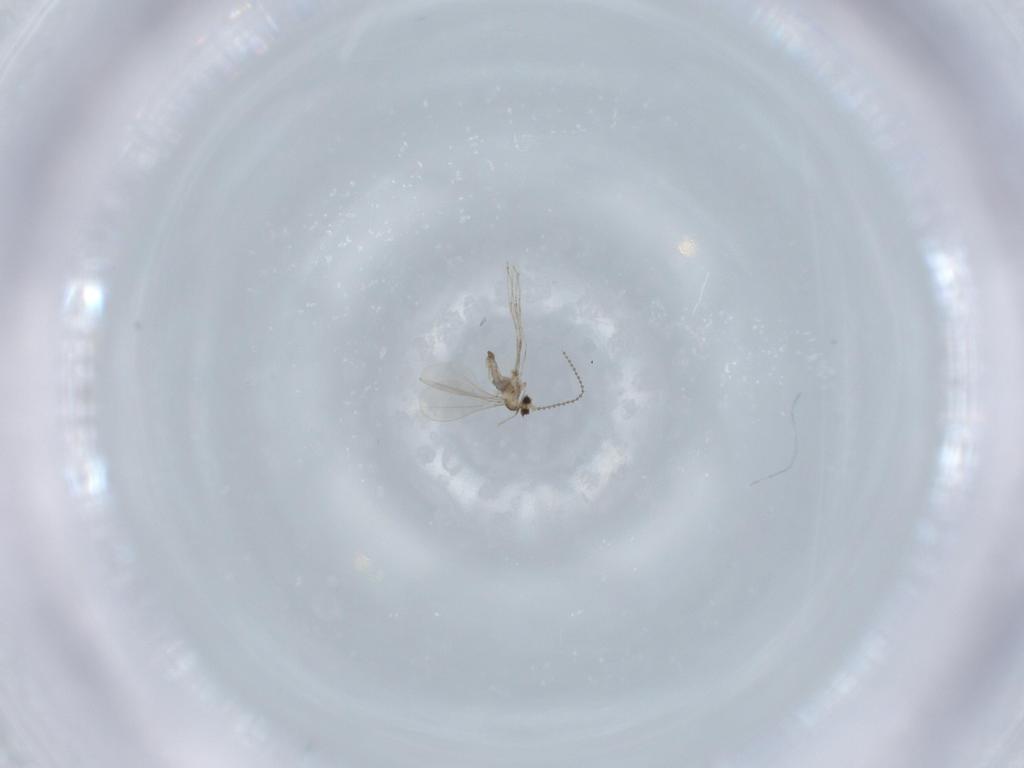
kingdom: Animalia
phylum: Arthropoda
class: Insecta
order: Diptera
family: Cecidomyiidae
